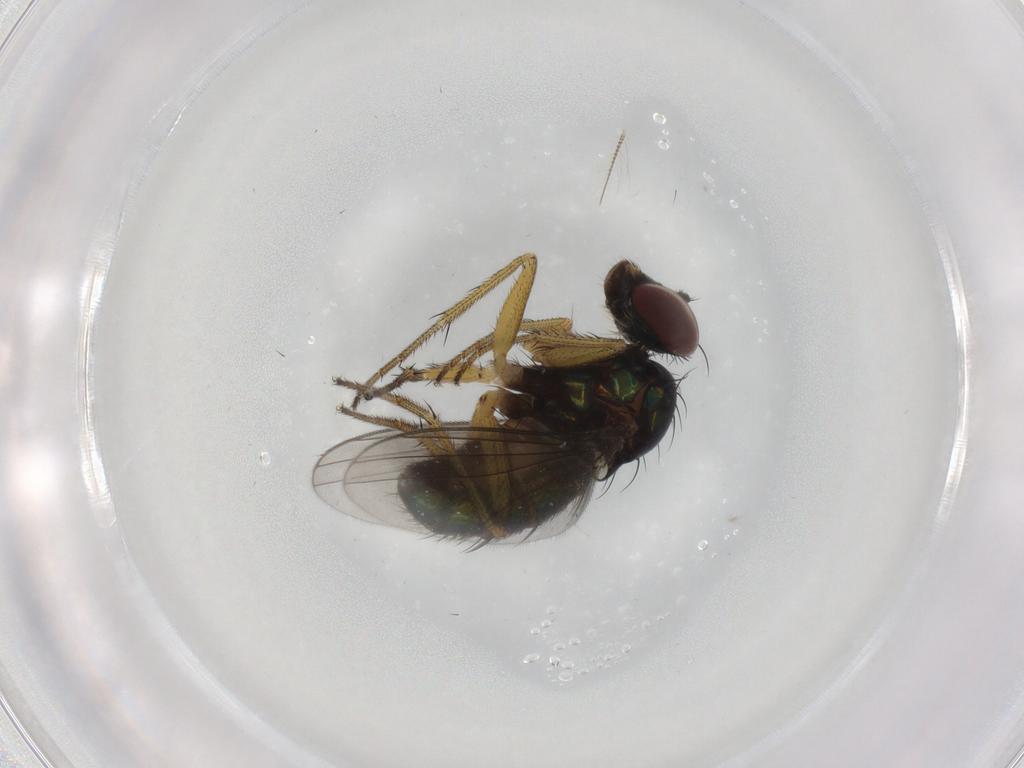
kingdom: Animalia
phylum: Arthropoda
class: Insecta
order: Diptera
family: Dolichopodidae
